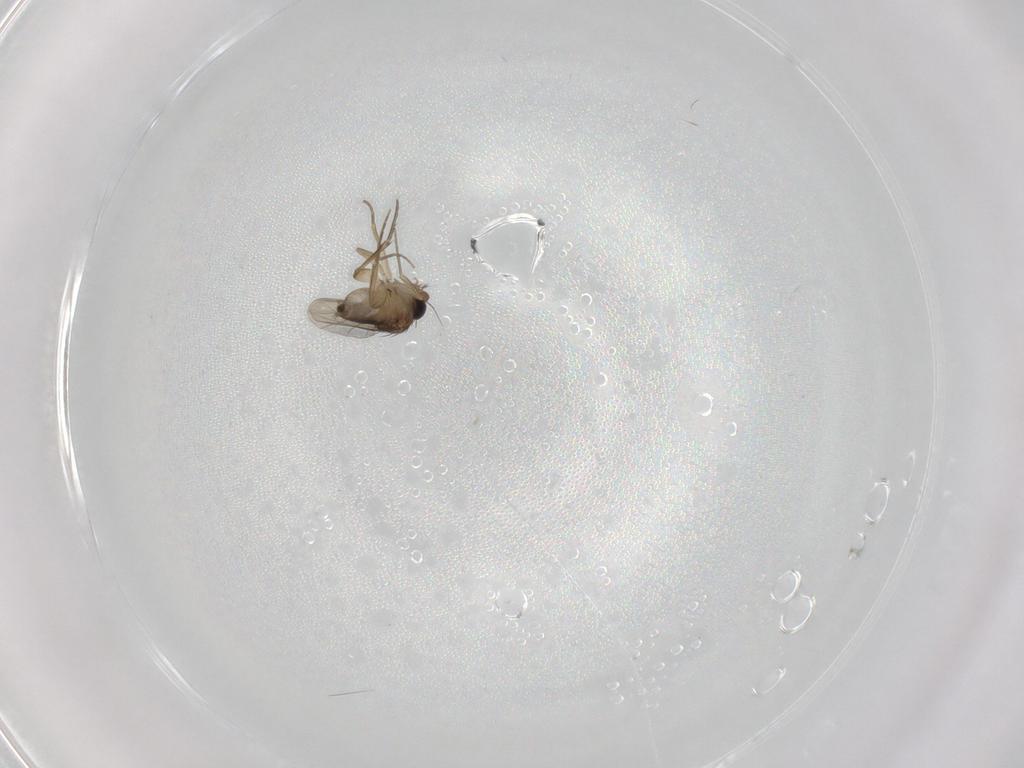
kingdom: Animalia
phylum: Arthropoda
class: Insecta
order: Diptera
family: Phoridae
